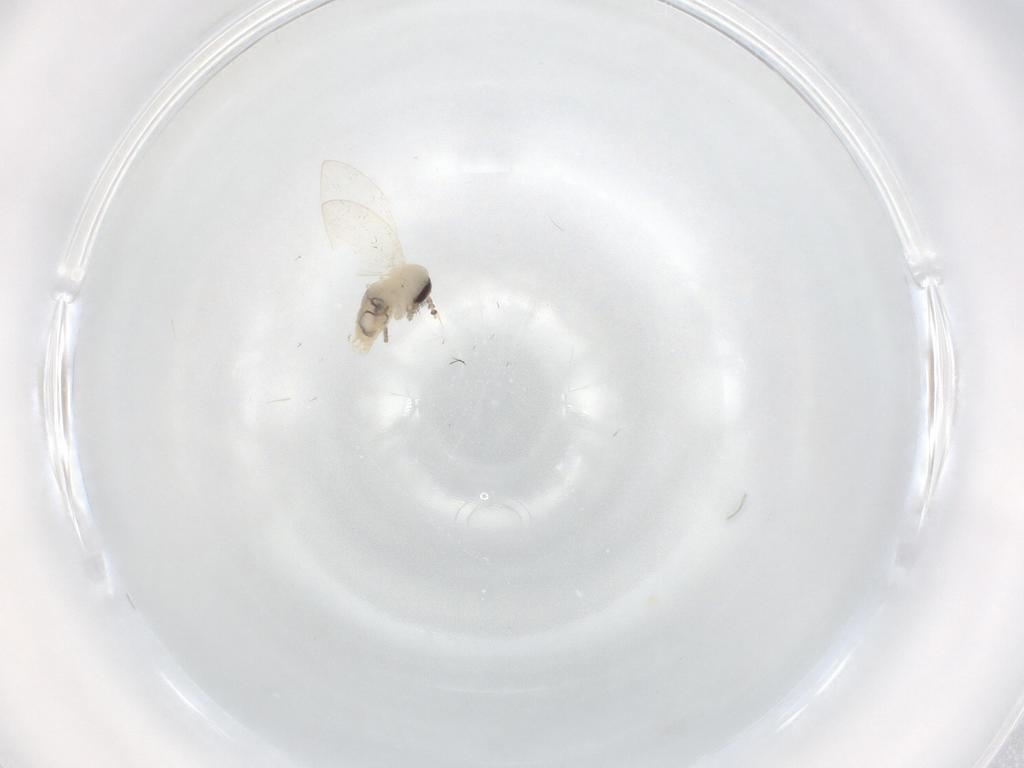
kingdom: Animalia
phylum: Arthropoda
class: Insecta
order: Diptera
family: Psychodidae
